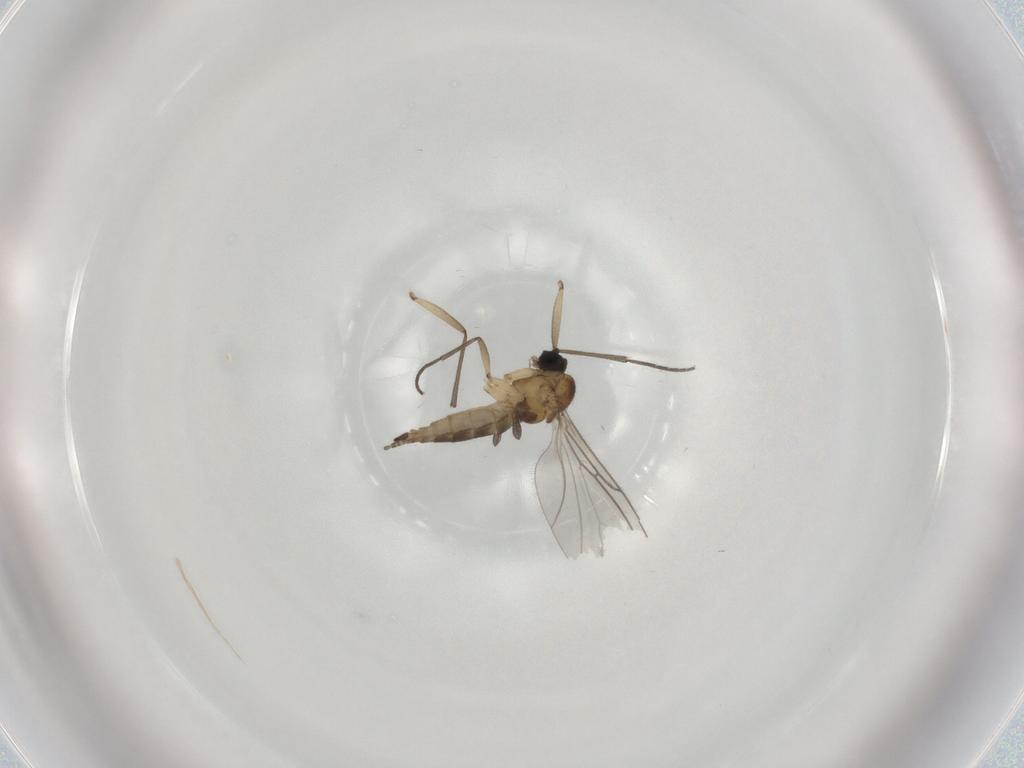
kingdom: Animalia
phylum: Arthropoda
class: Insecta
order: Diptera
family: Sciaridae
